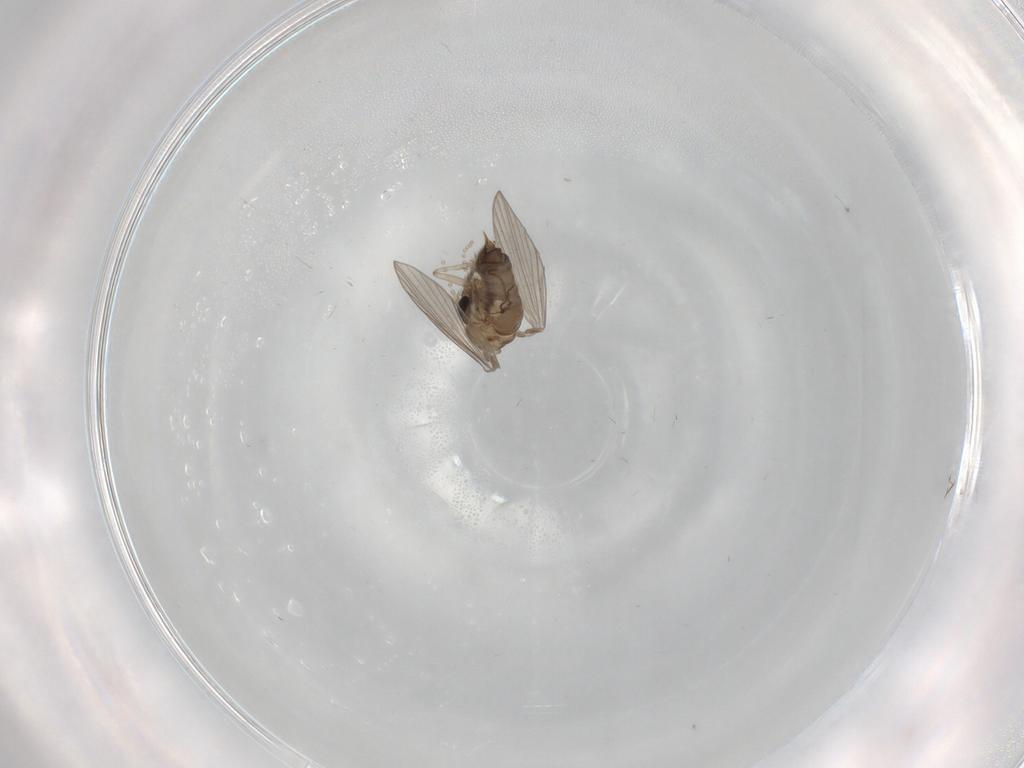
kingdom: Animalia
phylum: Arthropoda
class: Insecta
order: Diptera
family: Psychodidae
